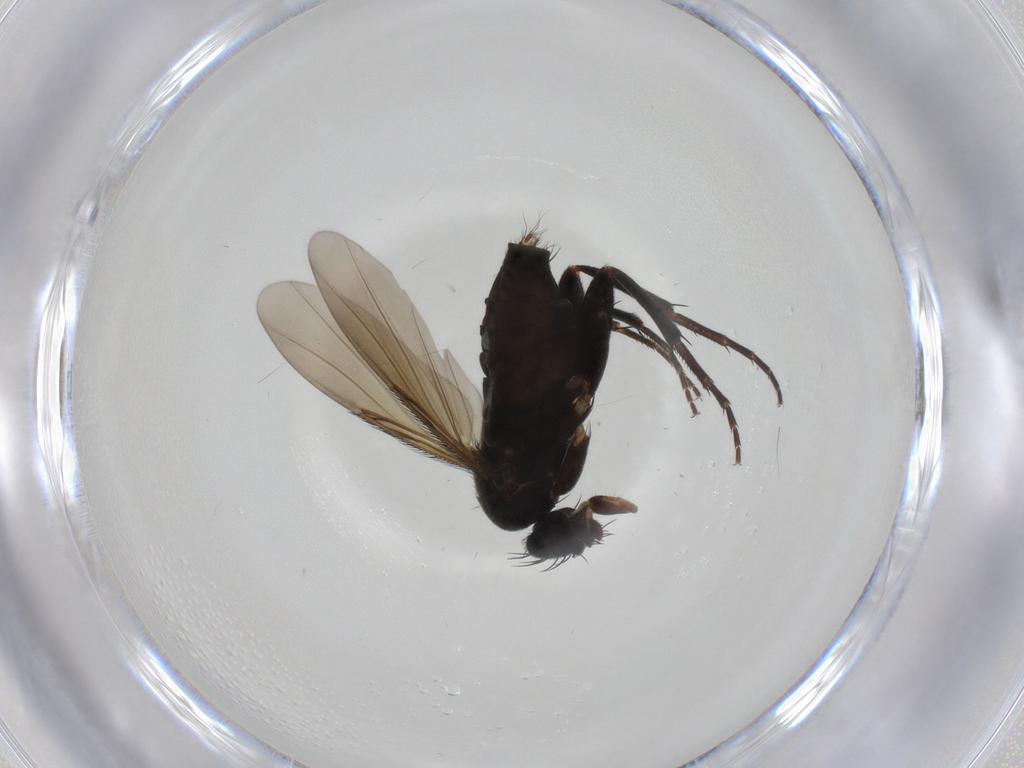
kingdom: Animalia
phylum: Arthropoda
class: Insecta
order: Diptera
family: Phoridae
